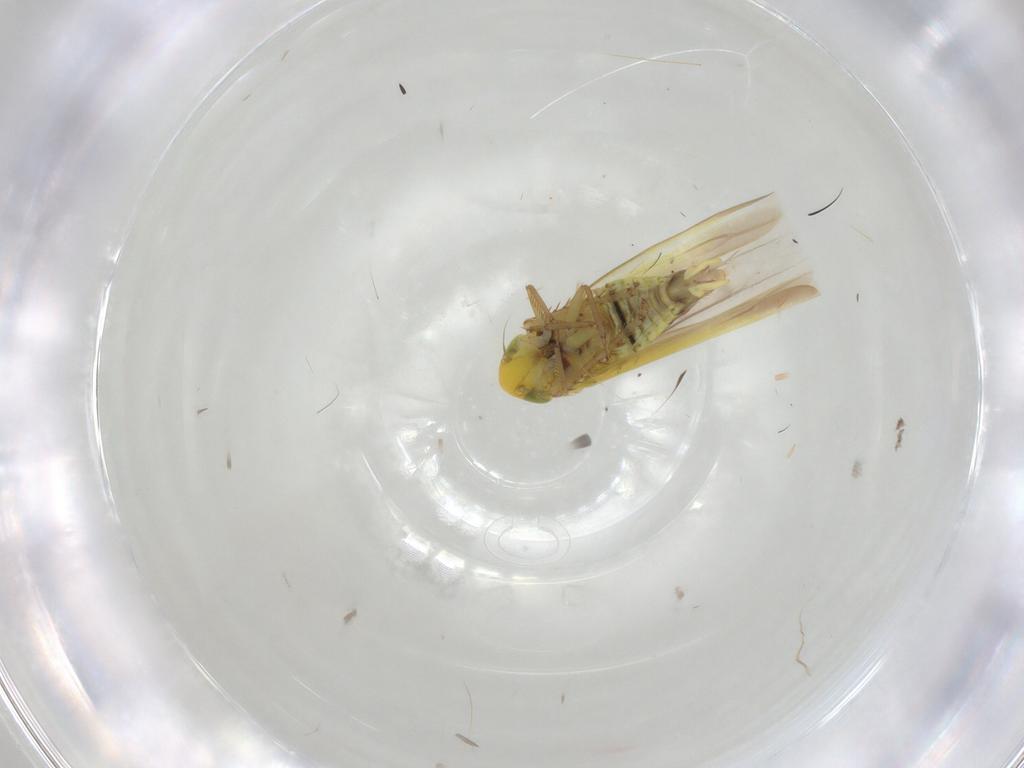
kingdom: Animalia
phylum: Arthropoda
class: Insecta
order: Hemiptera
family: Cicadellidae
